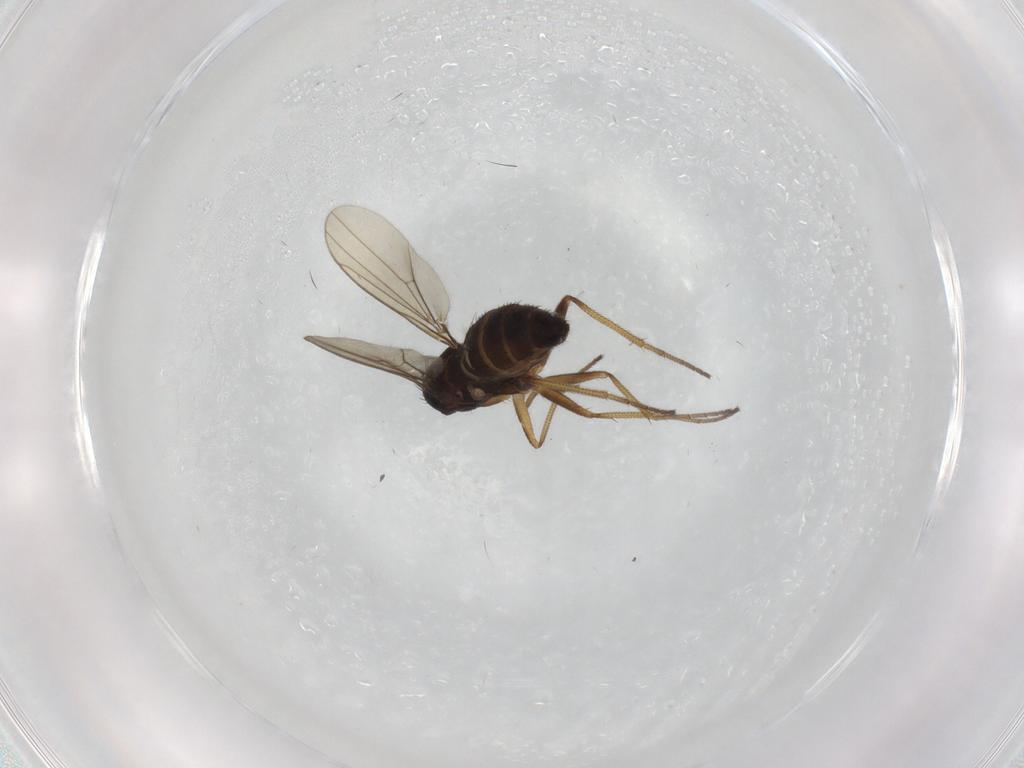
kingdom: Animalia
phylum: Arthropoda
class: Insecta
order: Diptera
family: Dolichopodidae
